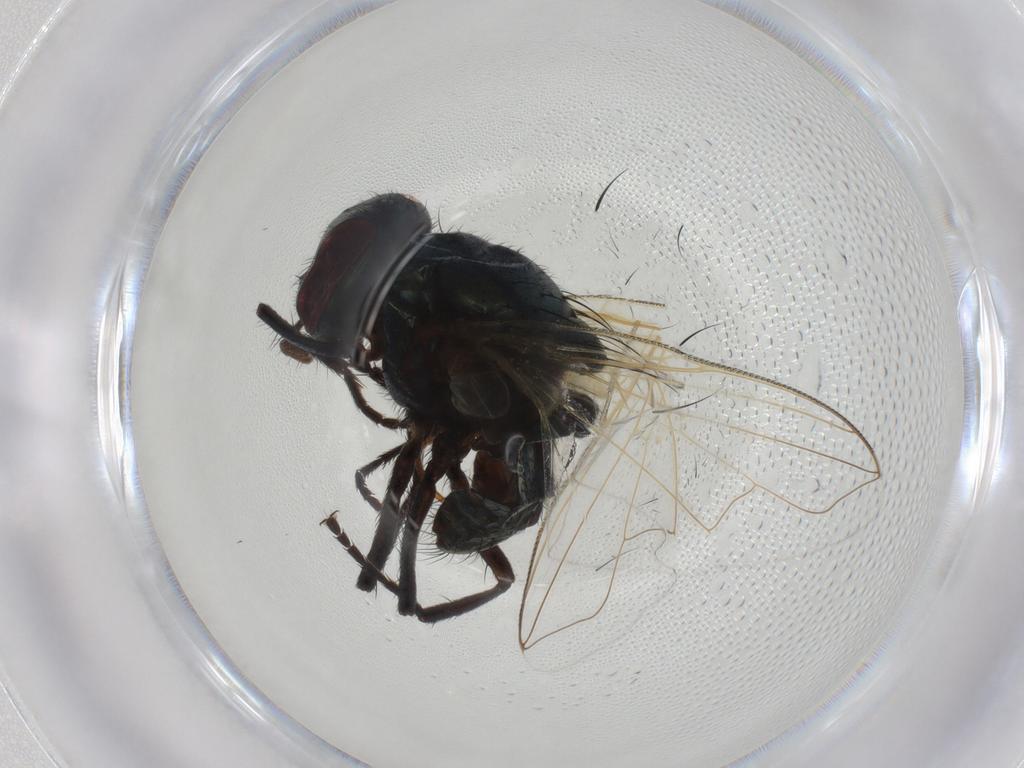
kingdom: Animalia
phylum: Arthropoda
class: Insecta
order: Diptera
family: Muscidae
